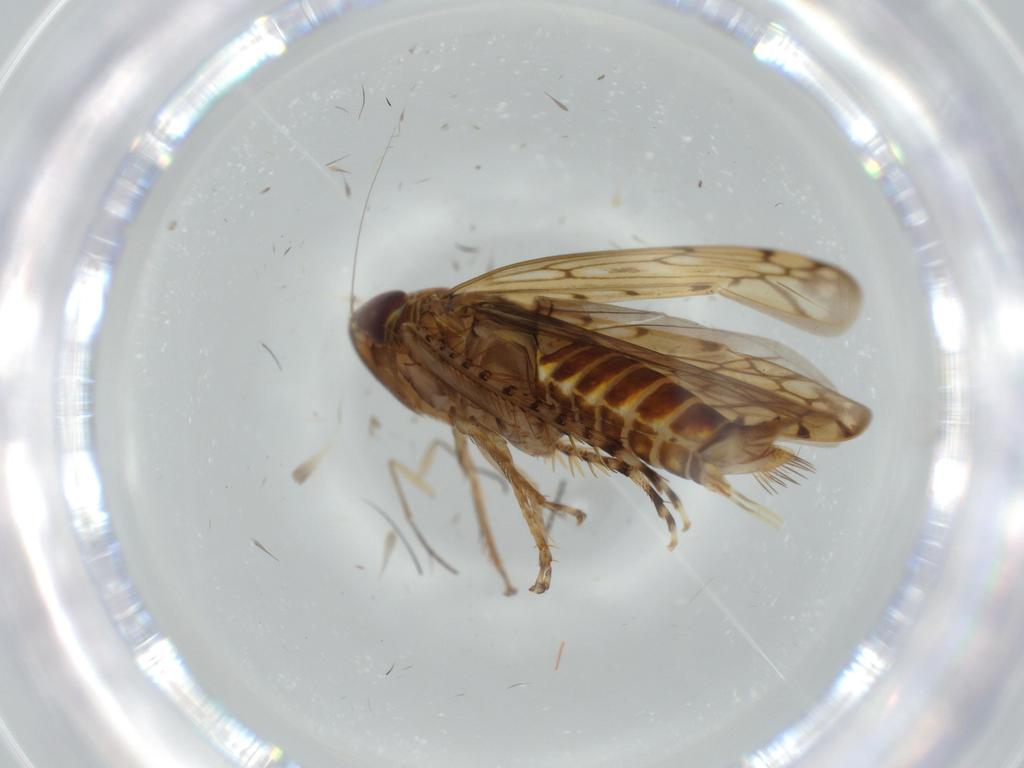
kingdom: Animalia
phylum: Arthropoda
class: Insecta
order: Hemiptera
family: Cicadellidae
